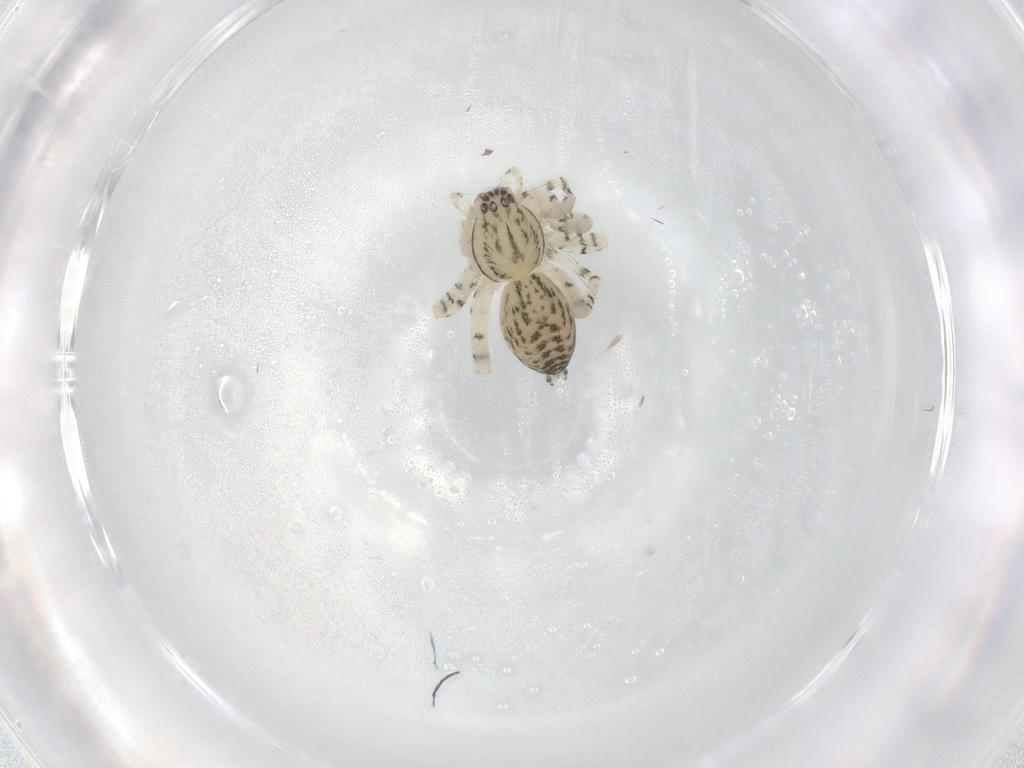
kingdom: Animalia
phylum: Arthropoda
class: Arachnida
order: Araneae
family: Anyphaenidae
